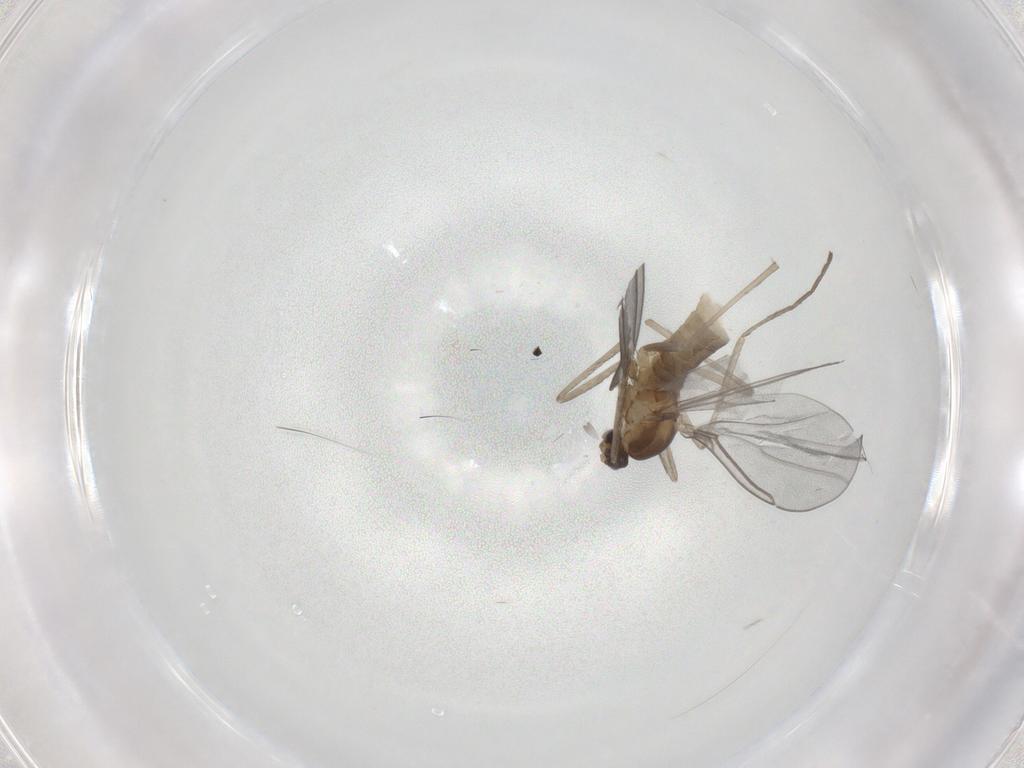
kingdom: Animalia
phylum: Arthropoda
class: Insecta
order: Diptera
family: Cecidomyiidae
